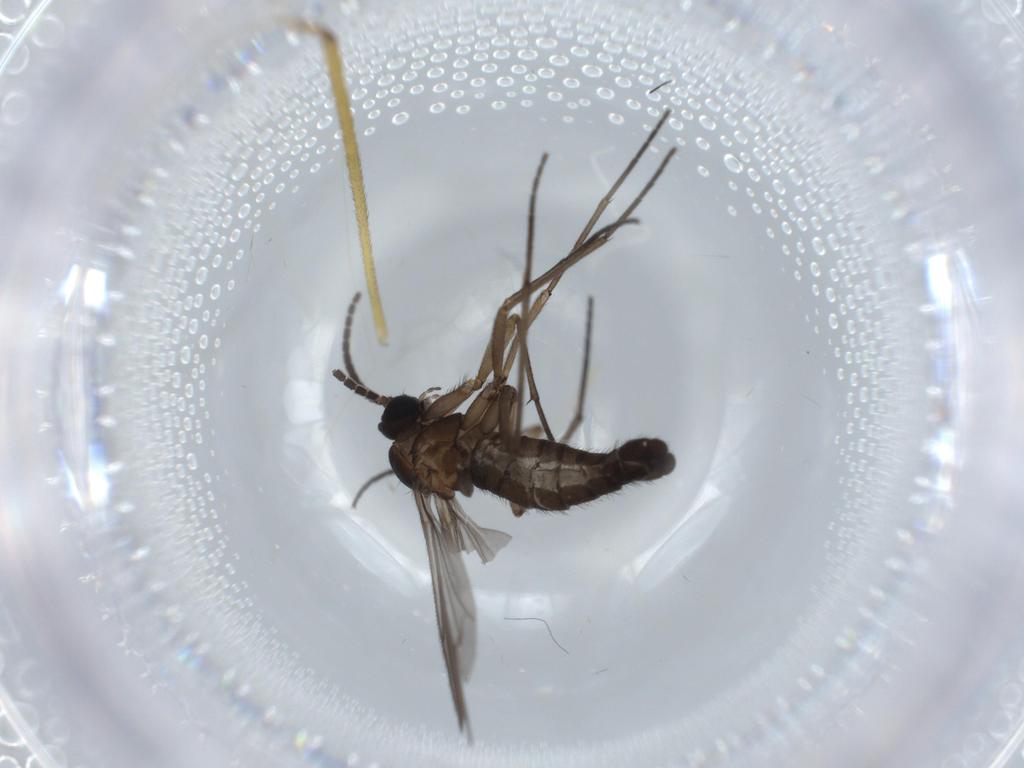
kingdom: Animalia
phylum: Arthropoda
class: Insecta
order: Diptera
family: Sciaridae
